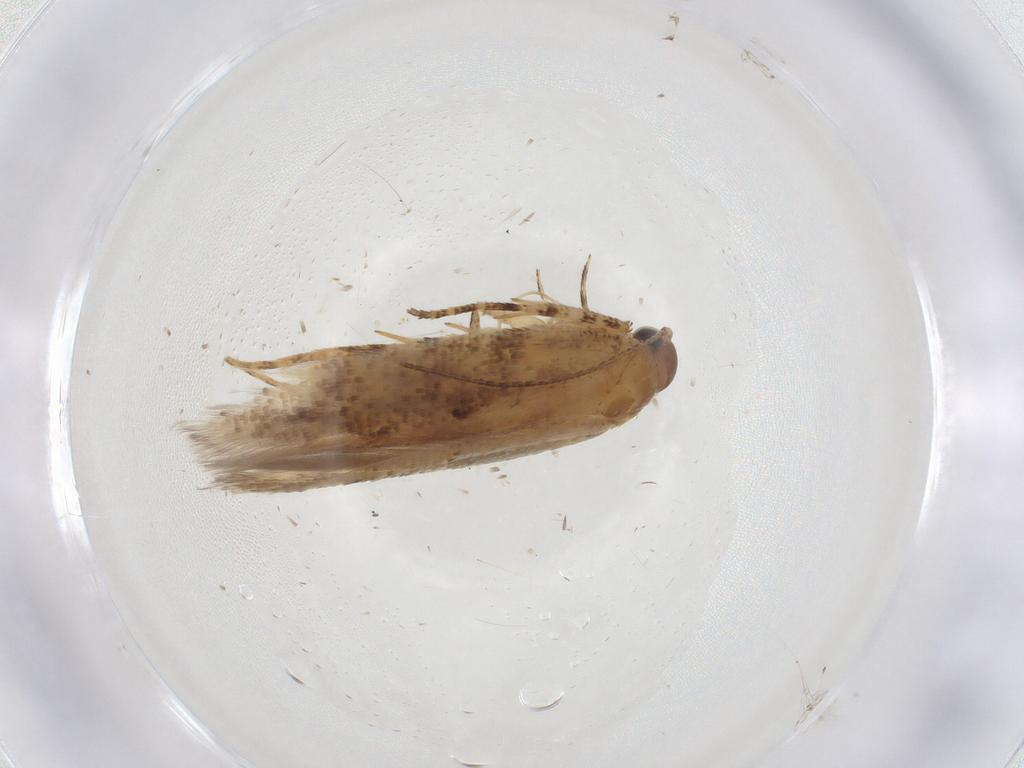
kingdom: Animalia
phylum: Arthropoda
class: Insecta
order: Lepidoptera
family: Gelechiidae
